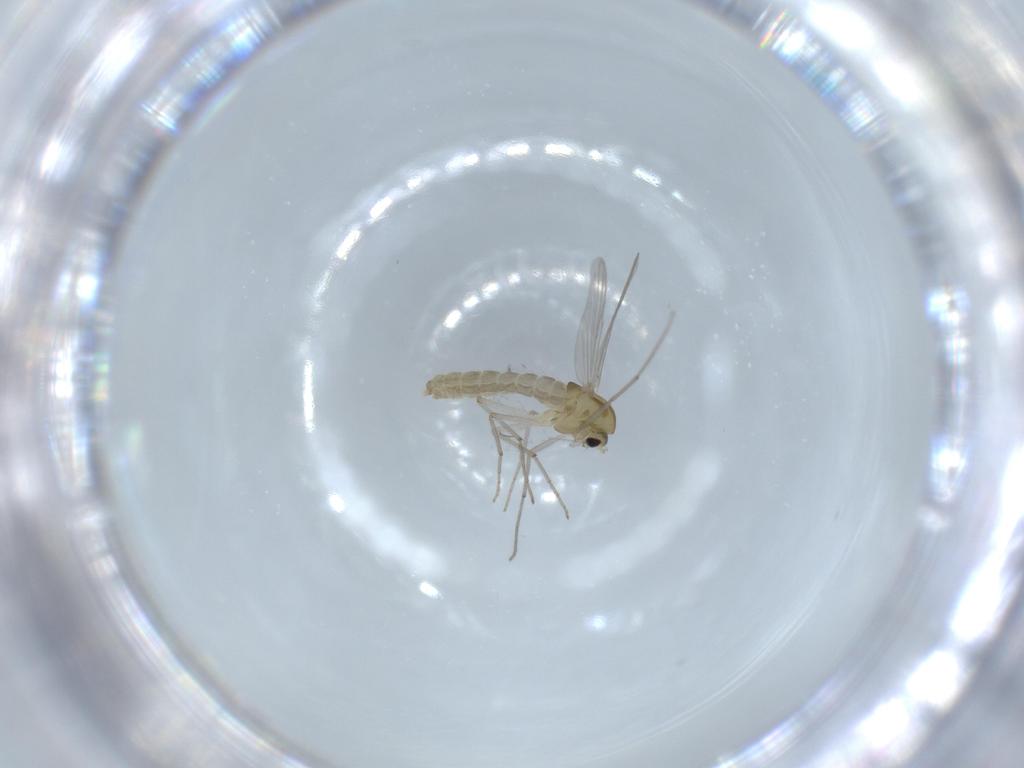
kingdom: Animalia
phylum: Arthropoda
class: Insecta
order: Diptera
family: Chironomidae
